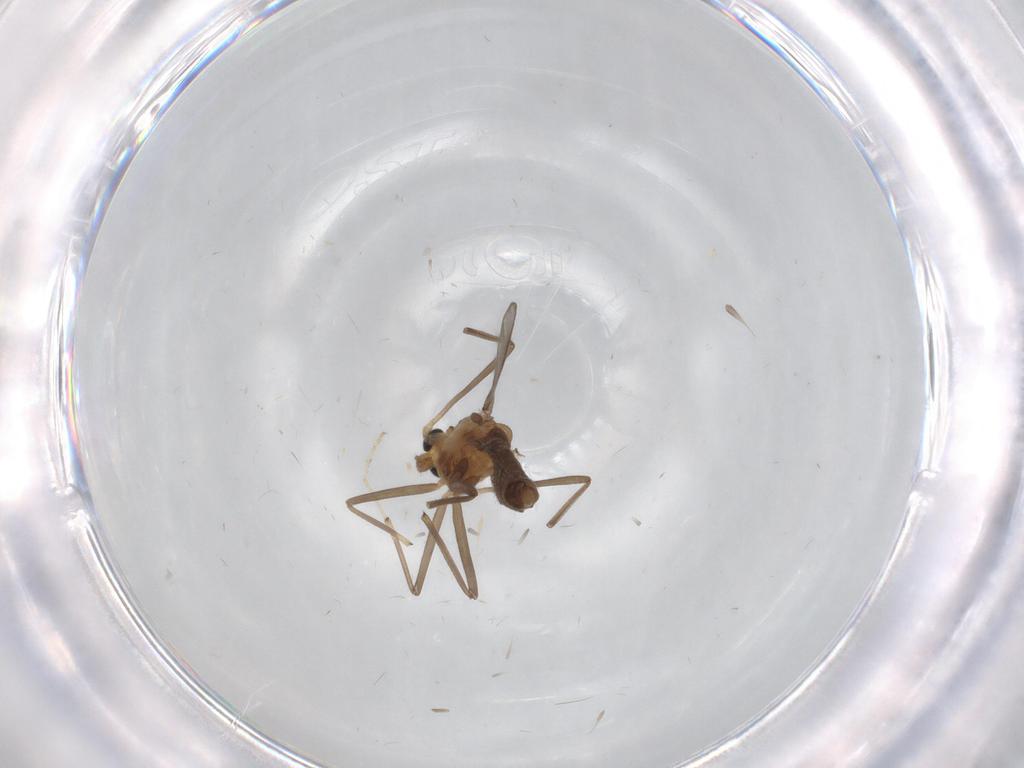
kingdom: Animalia
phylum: Arthropoda
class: Insecta
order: Diptera
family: Chironomidae
